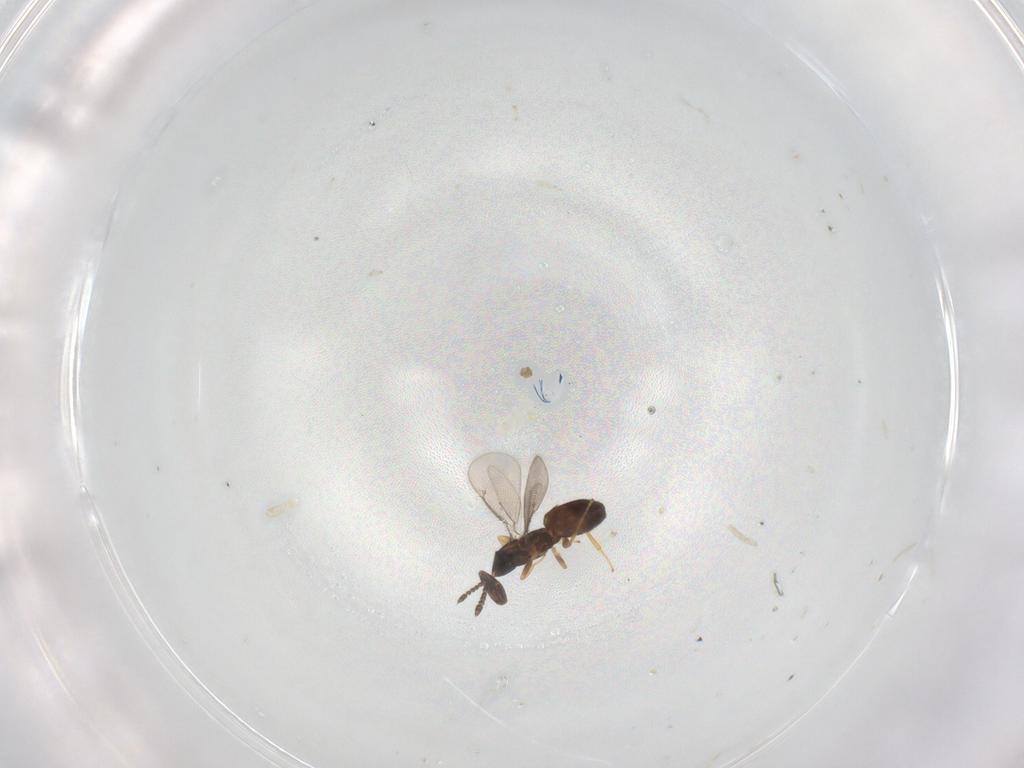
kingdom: Animalia
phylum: Arthropoda
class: Insecta
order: Hymenoptera
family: Eulophidae
